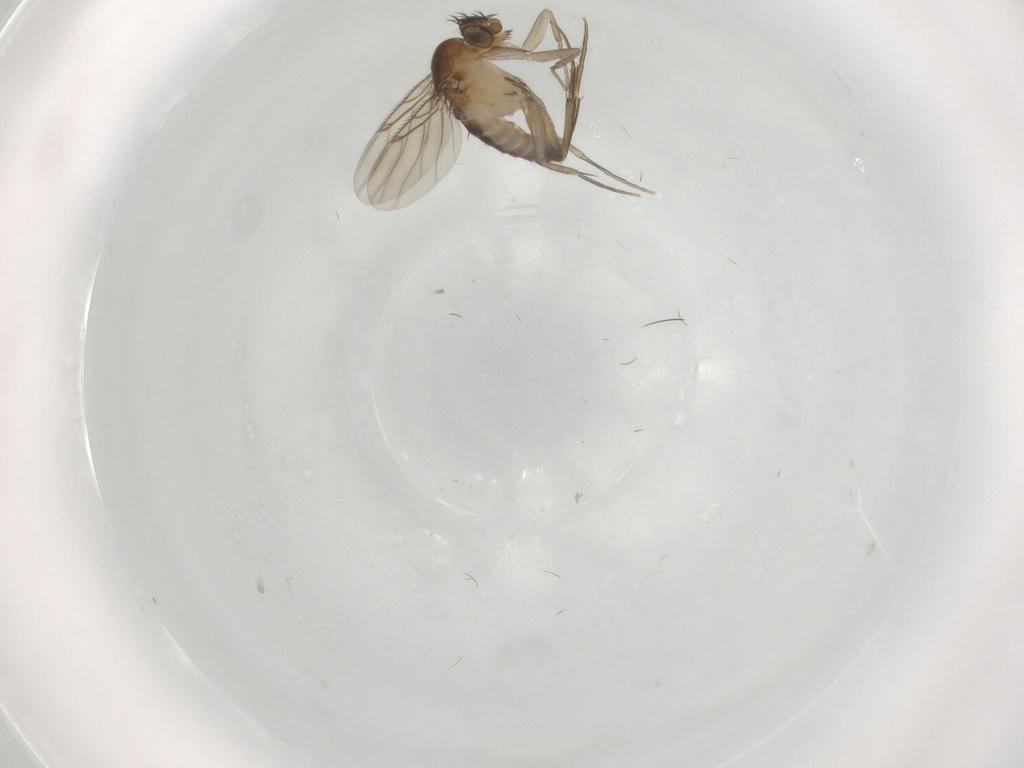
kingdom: Animalia
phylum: Arthropoda
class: Insecta
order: Diptera
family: Phoridae
